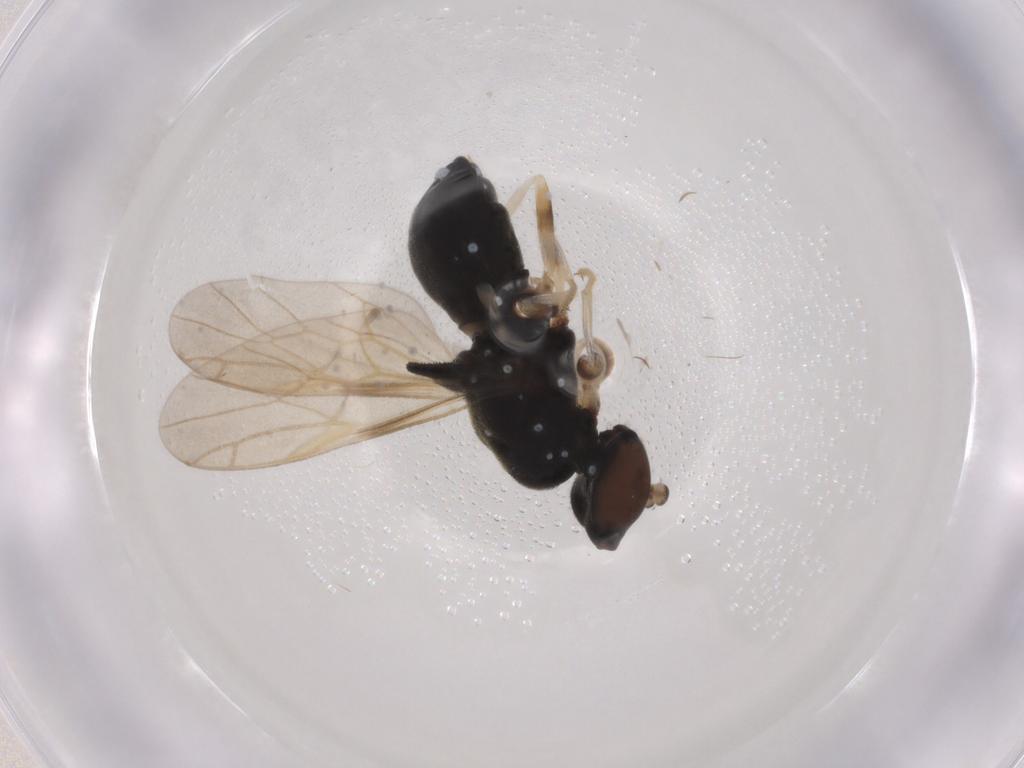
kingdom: Animalia
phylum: Arthropoda
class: Insecta
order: Diptera
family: Stratiomyidae
